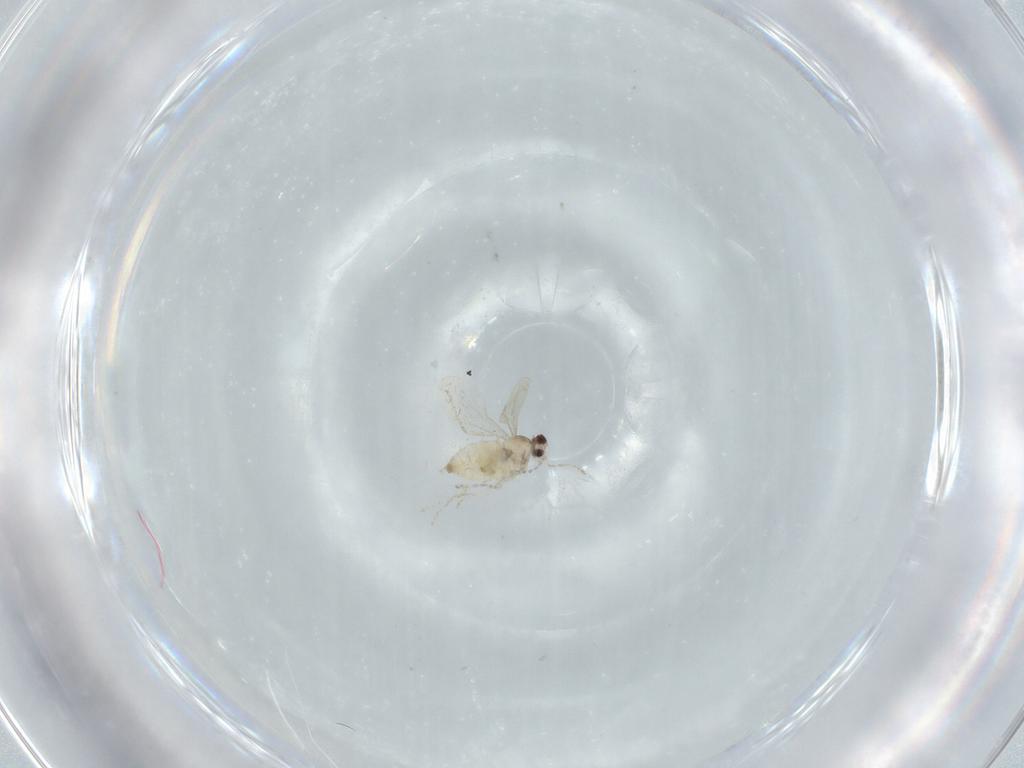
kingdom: Animalia
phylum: Arthropoda
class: Insecta
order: Diptera
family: Cecidomyiidae
